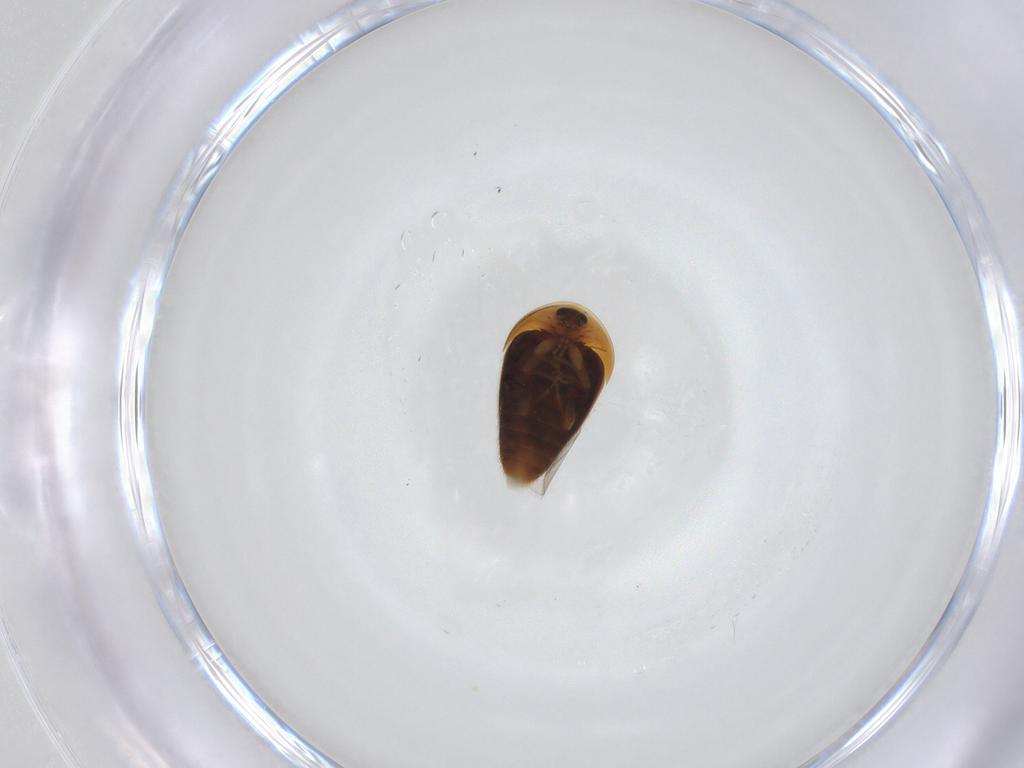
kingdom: Animalia
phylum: Arthropoda
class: Insecta
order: Coleoptera
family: Corylophidae
